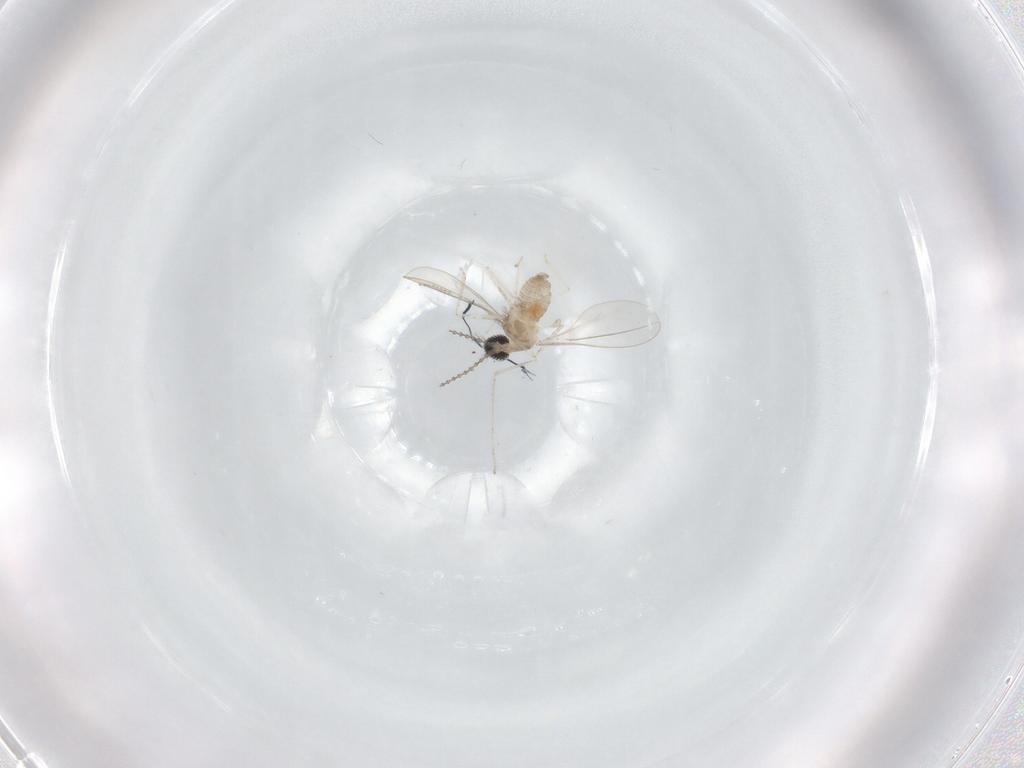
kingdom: Animalia
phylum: Arthropoda
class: Insecta
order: Diptera
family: Cecidomyiidae
